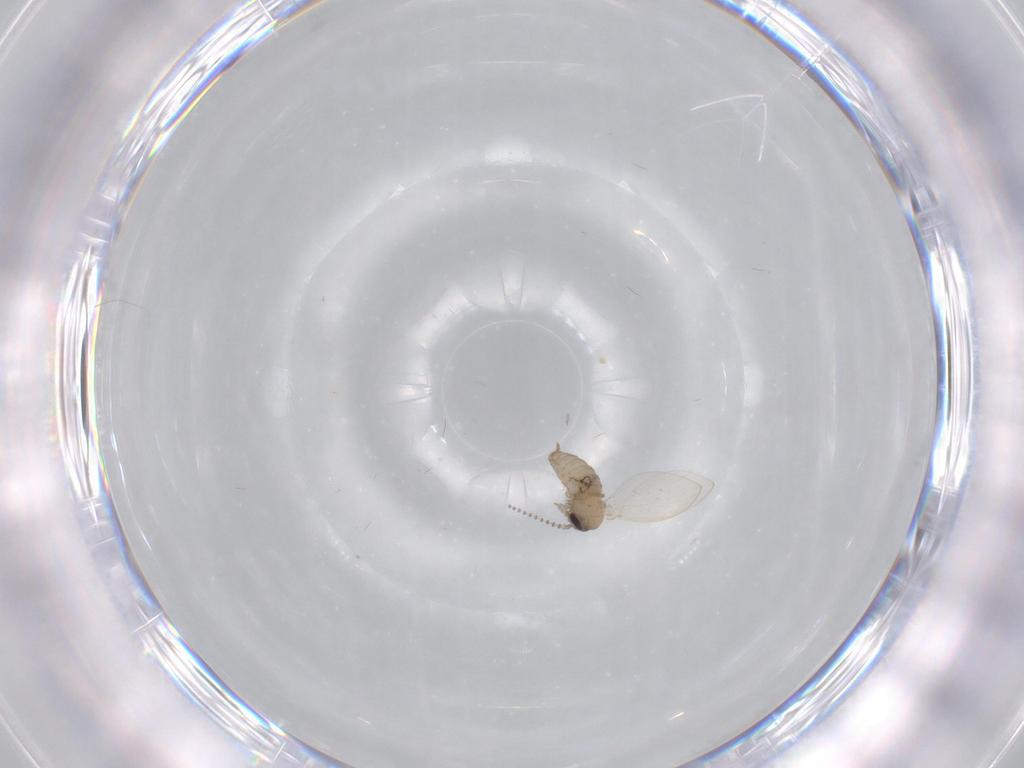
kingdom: Animalia
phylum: Arthropoda
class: Insecta
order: Diptera
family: Psychodidae
